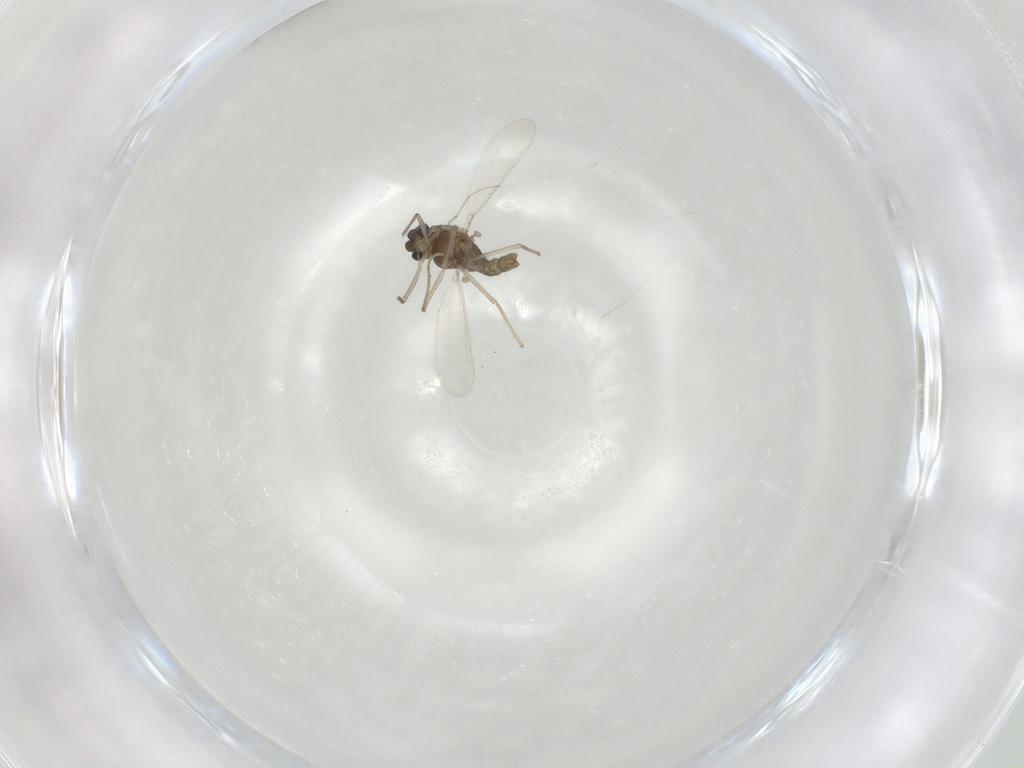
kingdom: Animalia
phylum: Arthropoda
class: Insecta
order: Diptera
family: Chironomidae
